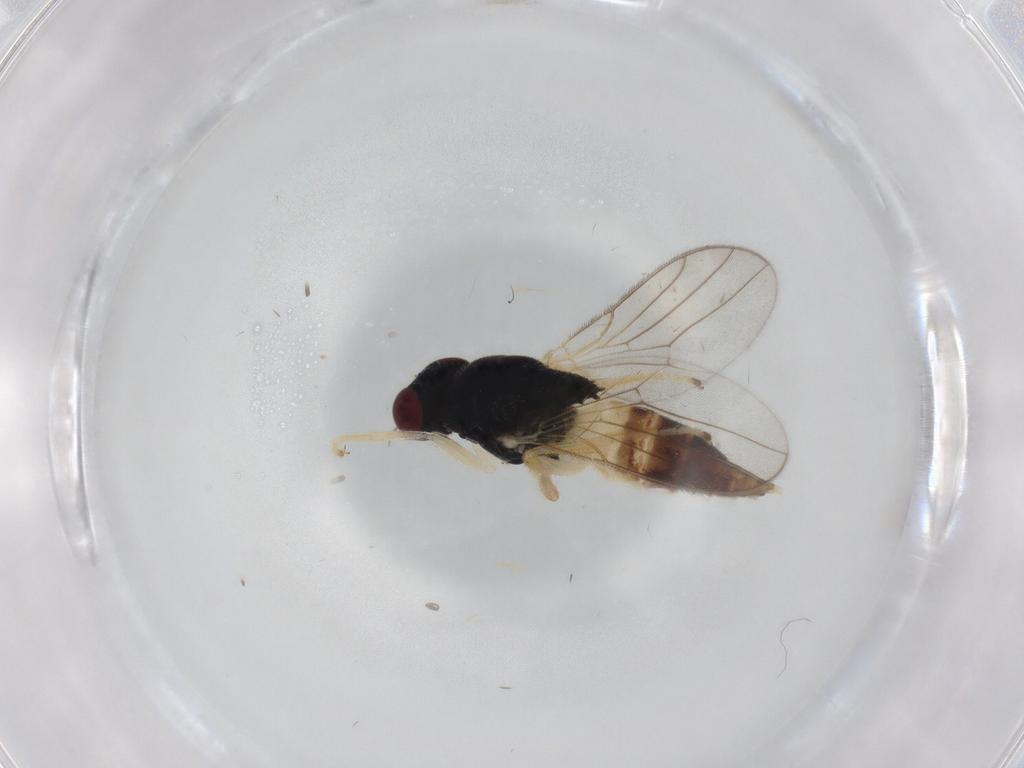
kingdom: Animalia
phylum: Arthropoda
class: Insecta
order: Diptera
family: Chloropidae
